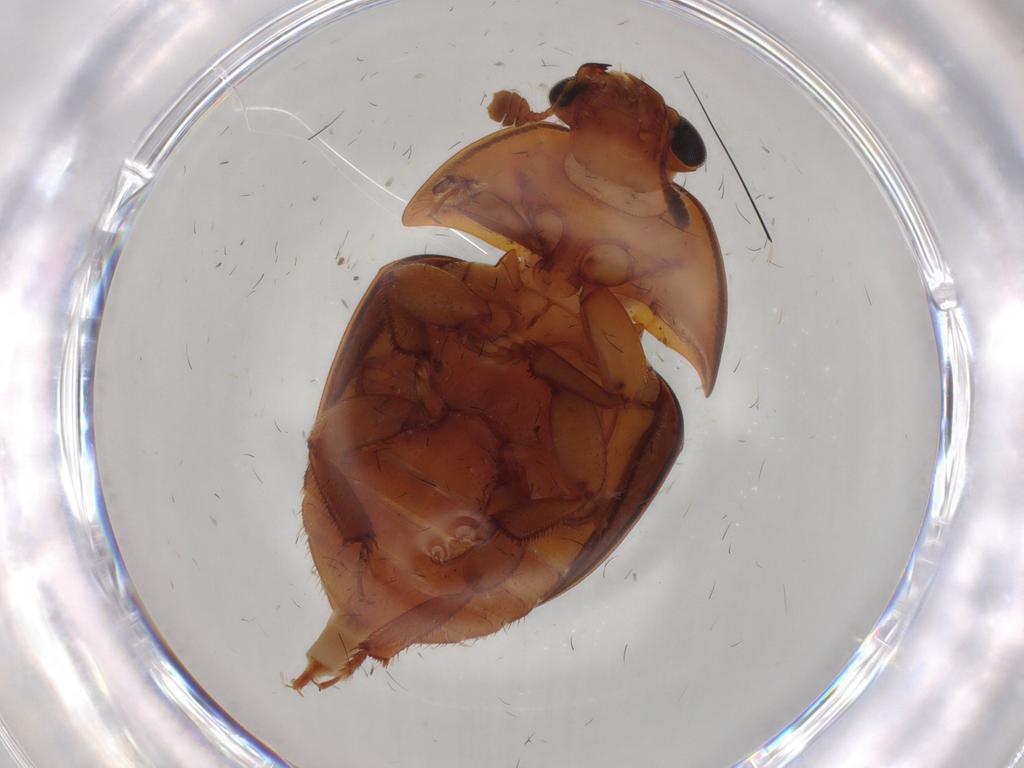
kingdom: Animalia
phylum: Arthropoda
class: Insecta
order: Coleoptera
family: Nitidulidae
